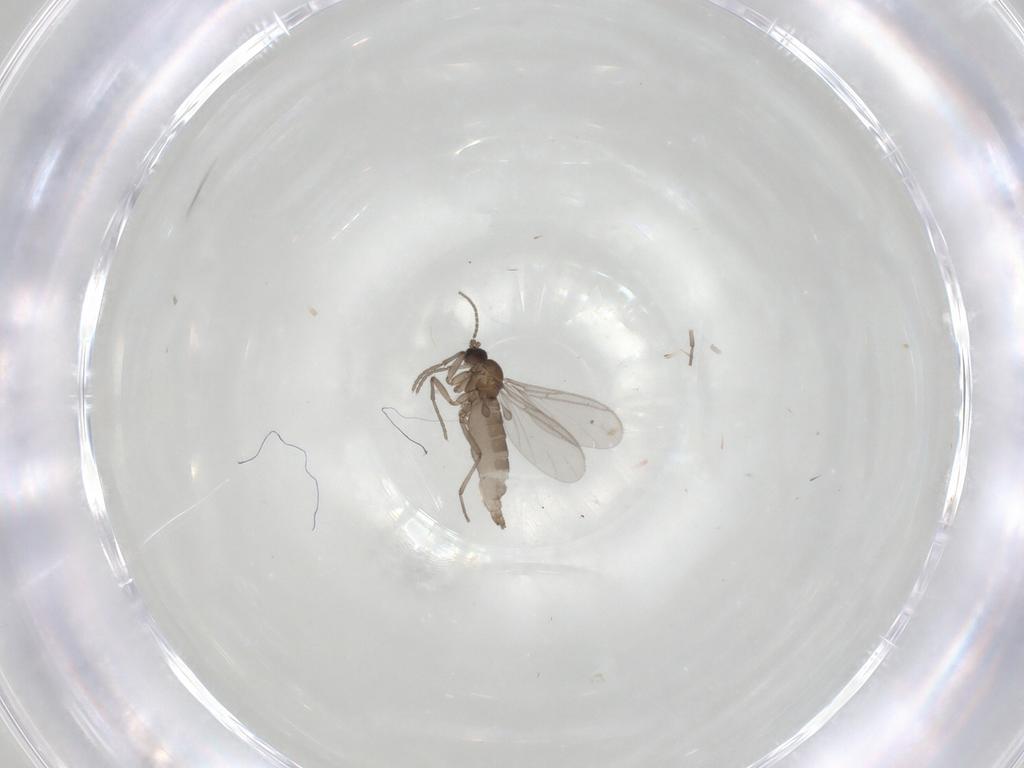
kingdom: Animalia
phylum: Arthropoda
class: Insecta
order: Diptera
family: Sciaridae
